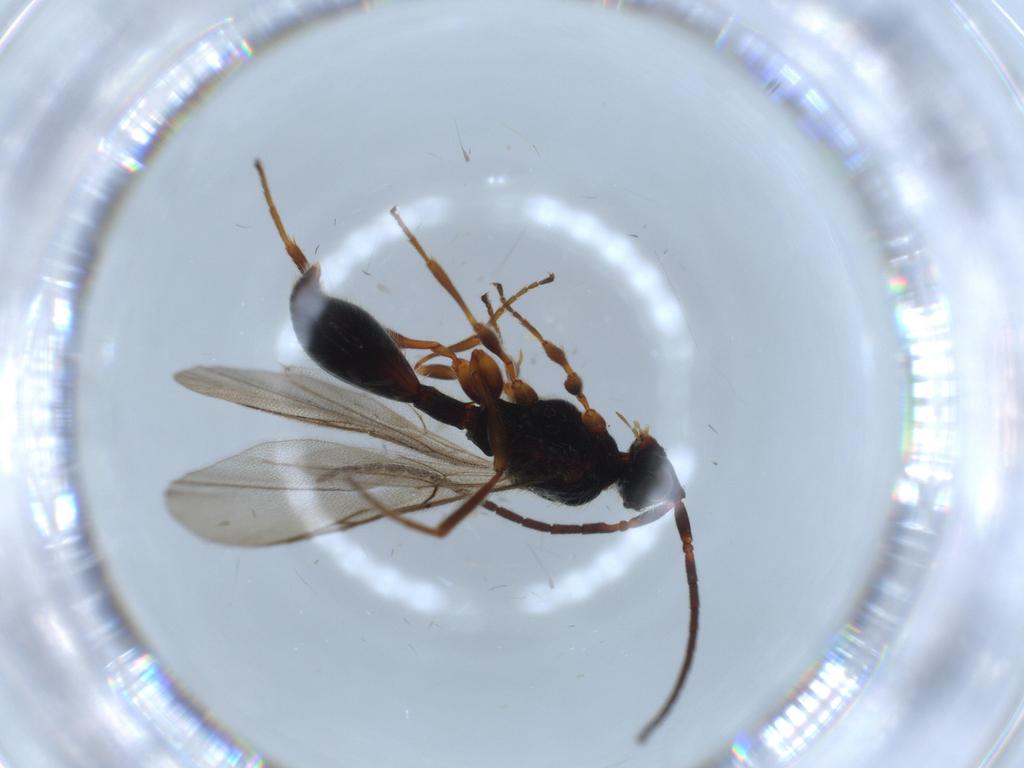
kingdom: Animalia
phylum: Arthropoda
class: Insecta
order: Hymenoptera
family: Scelionidae
